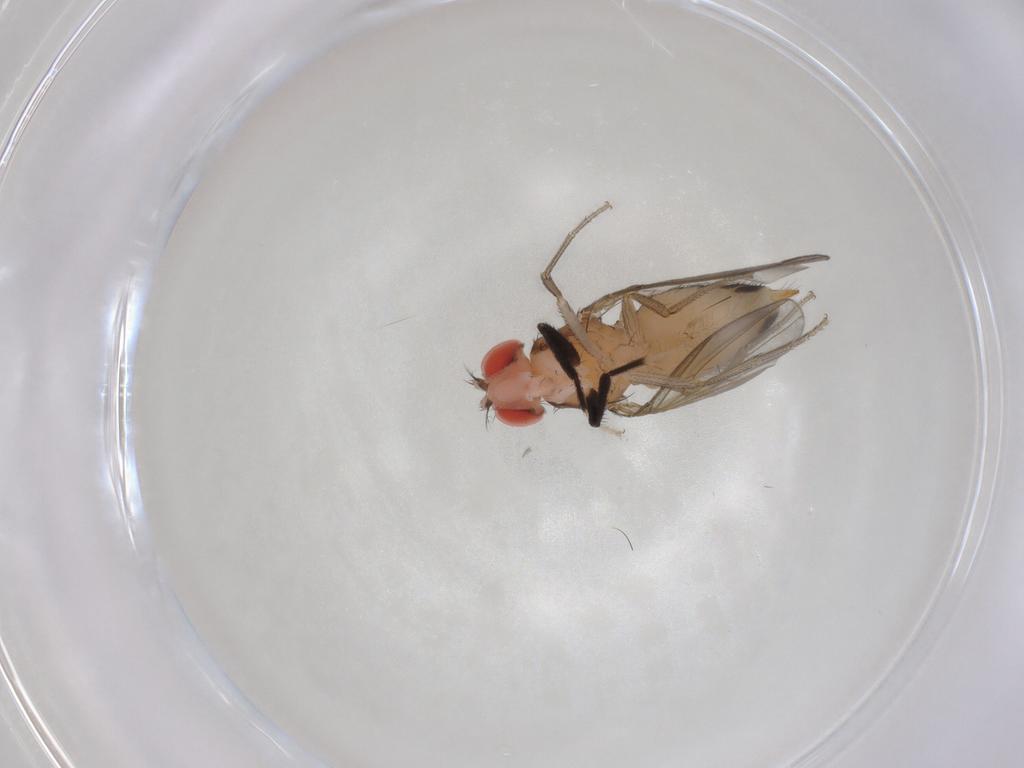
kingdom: Animalia
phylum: Arthropoda
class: Insecta
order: Diptera
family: Drosophilidae
